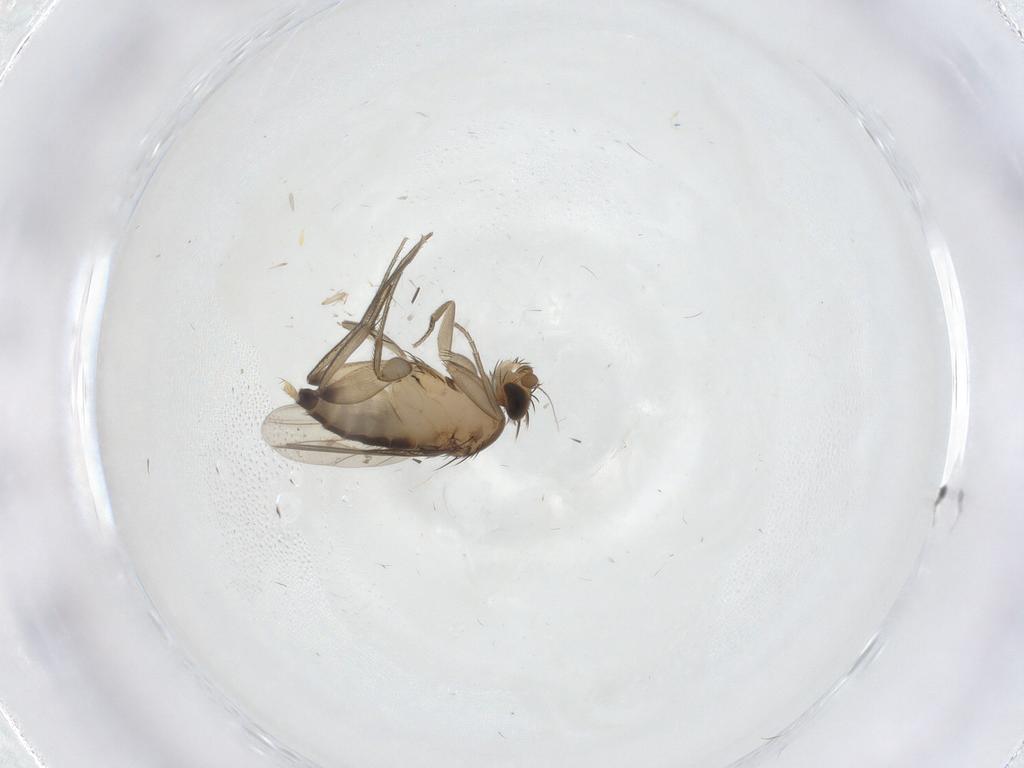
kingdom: Animalia
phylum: Arthropoda
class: Insecta
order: Diptera
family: Ceratopogonidae
